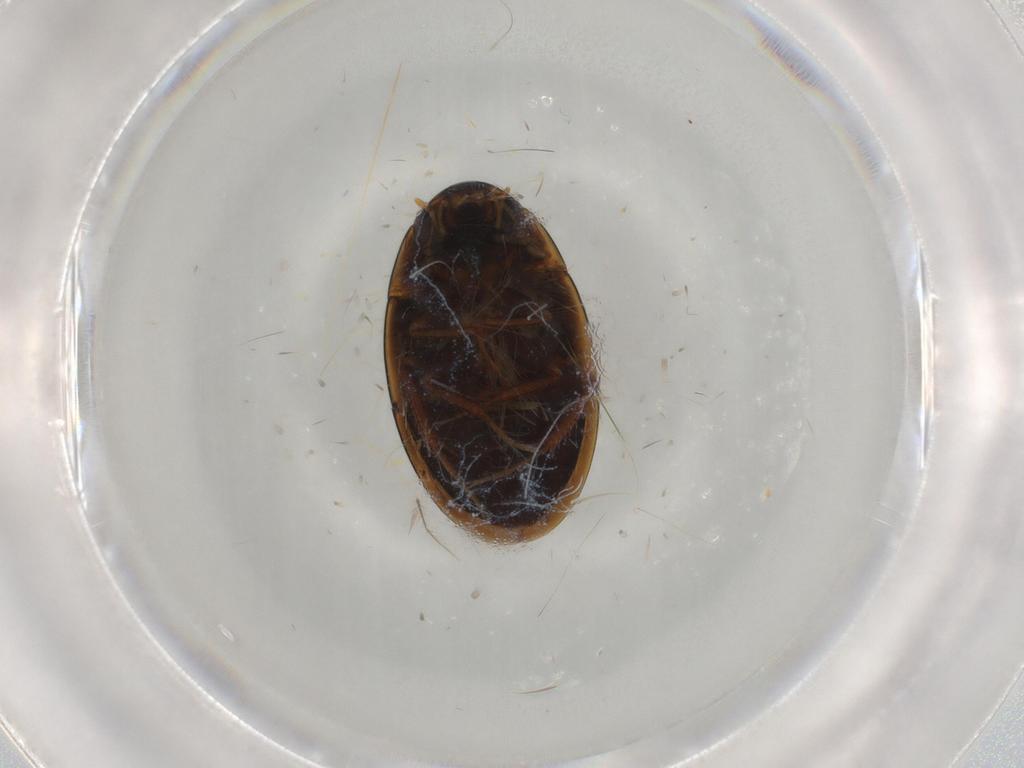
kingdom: Animalia
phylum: Arthropoda
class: Insecta
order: Coleoptera
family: Hydrophilidae
